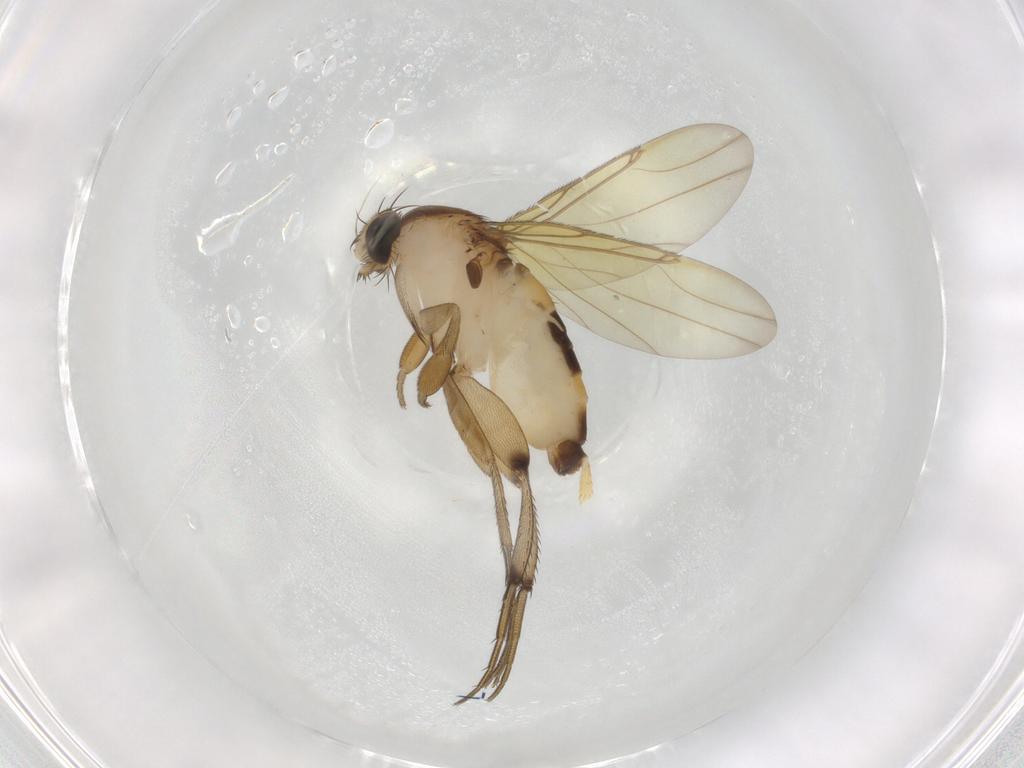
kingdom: Animalia
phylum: Arthropoda
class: Insecta
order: Diptera
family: Phoridae
